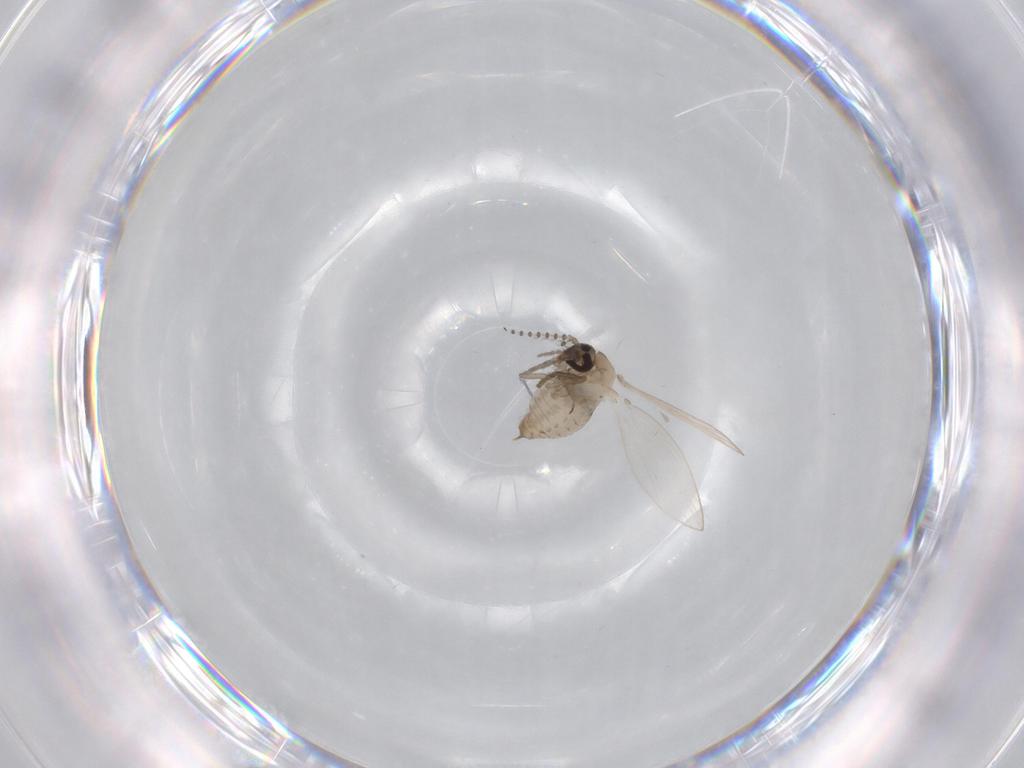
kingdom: Animalia
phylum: Arthropoda
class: Insecta
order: Diptera
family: Psychodidae
